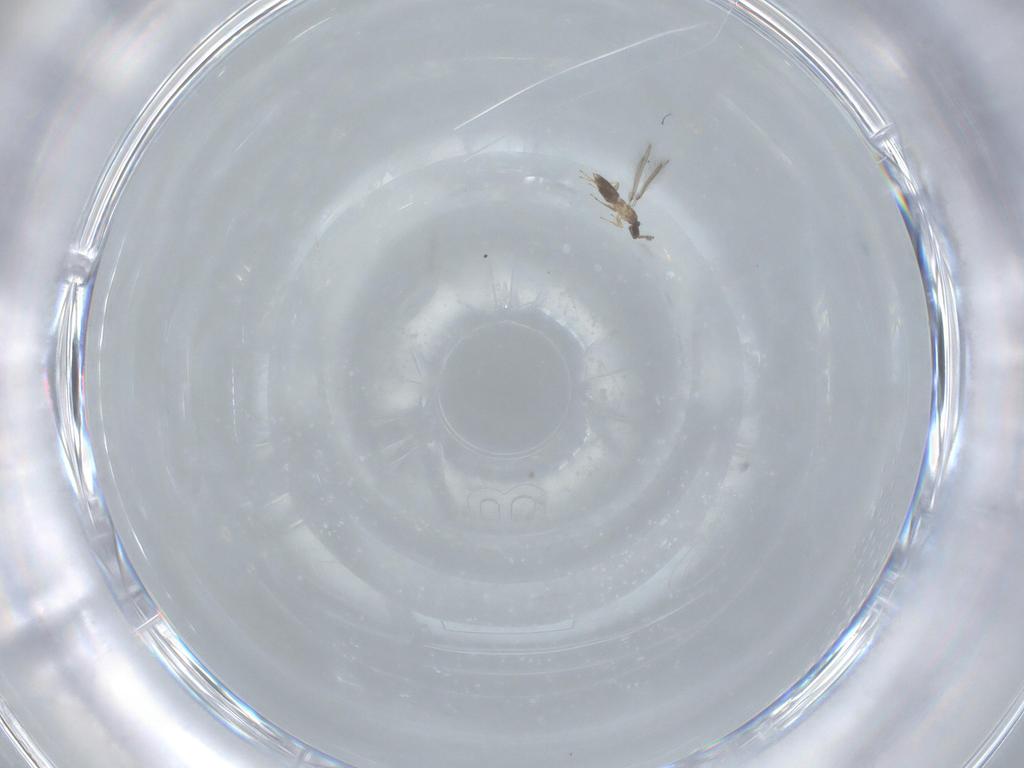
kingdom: Animalia
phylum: Arthropoda
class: Insecta
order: Hymenoptera
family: Mymaridae
